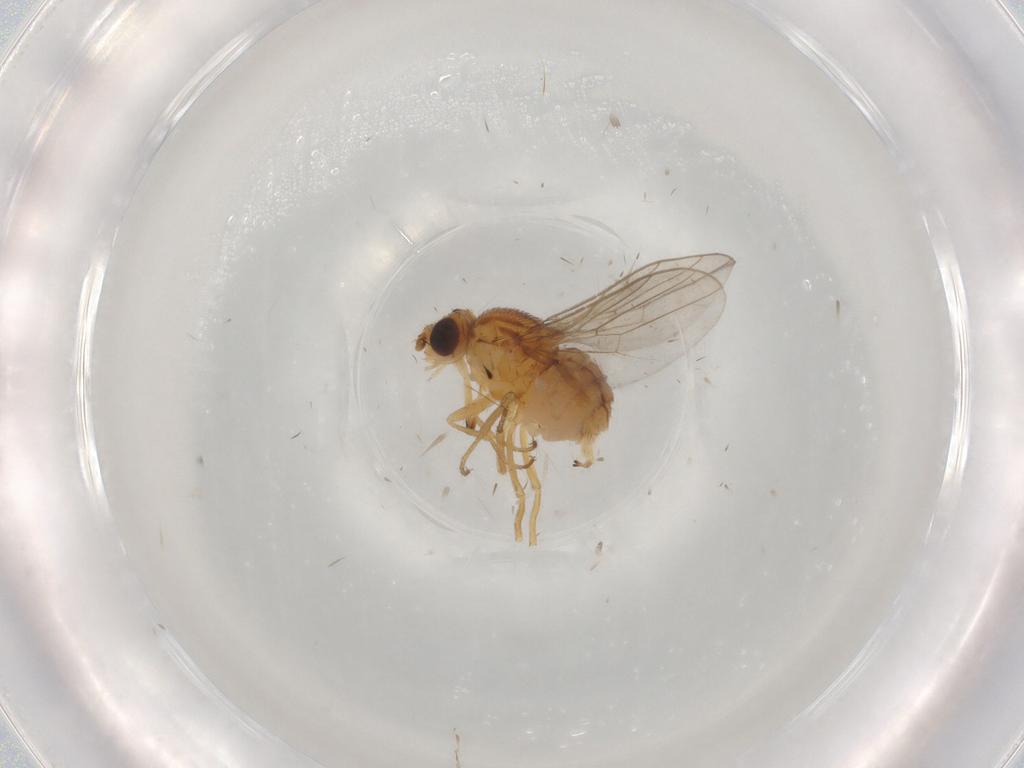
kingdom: Animalia
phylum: Arthropoda
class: Insecta
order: Diptera
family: Chloropidae
